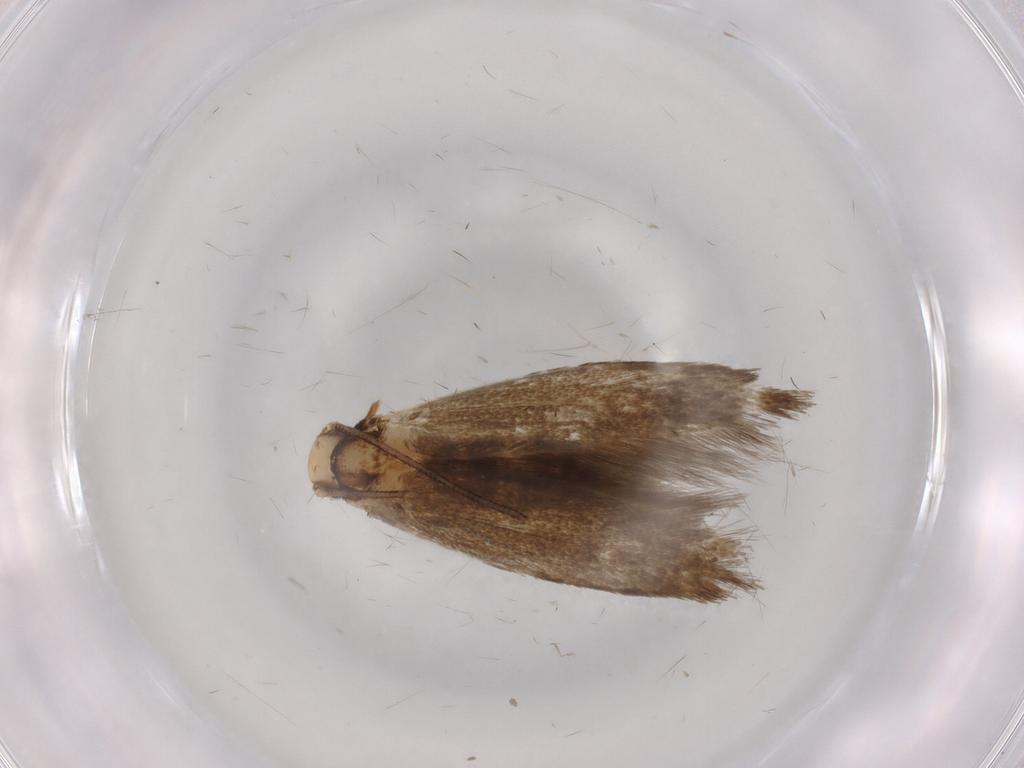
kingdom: Animalia
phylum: Arthropoda
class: Insecta
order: Lepidoptera
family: Tineidae
